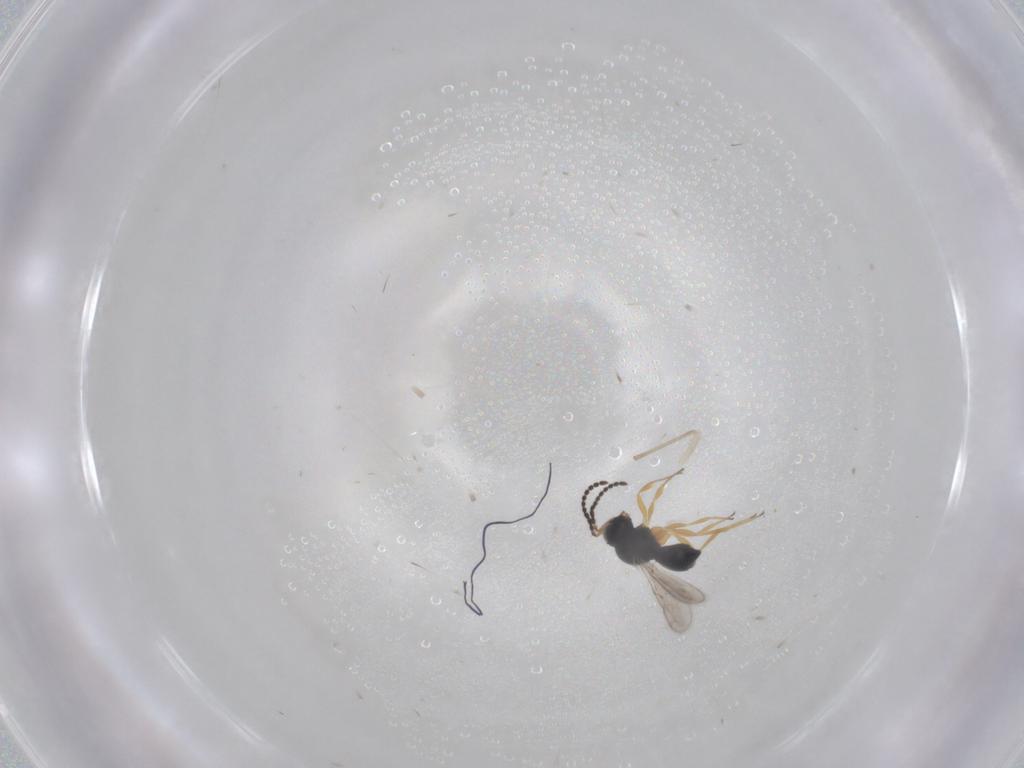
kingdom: Animalia
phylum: Arthropoda
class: Insecta
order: Hymenoptera
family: Scelionidae
